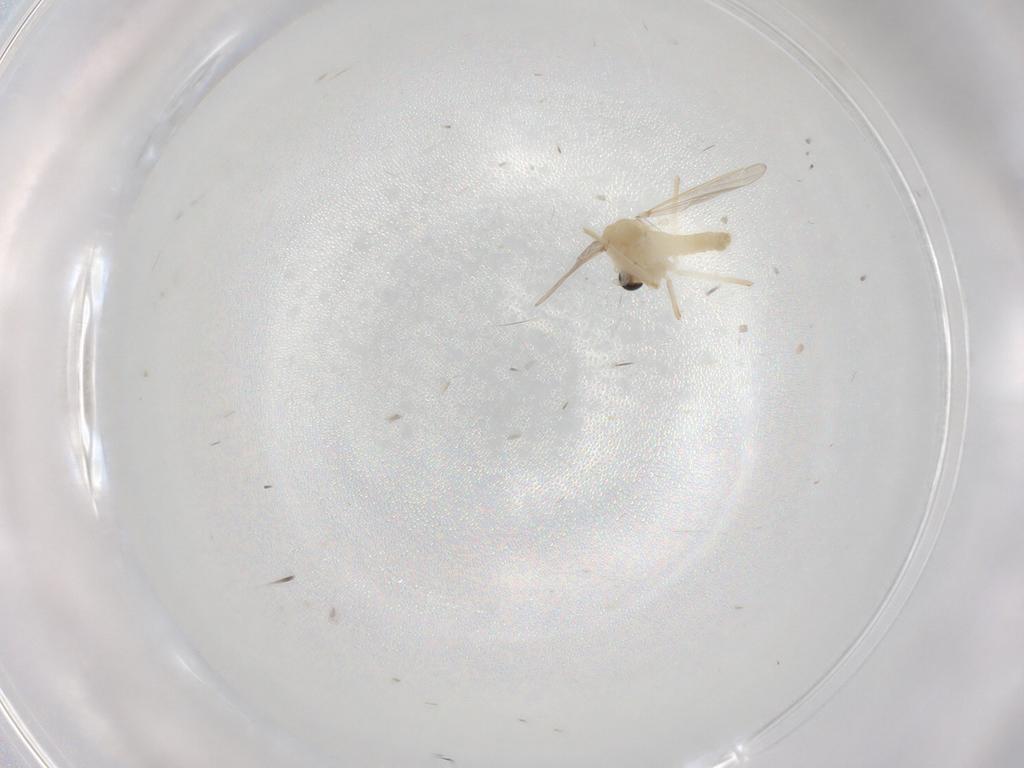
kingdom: Animalia
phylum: Arthropoda
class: Insecta
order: Diptera
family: Chironomidae
